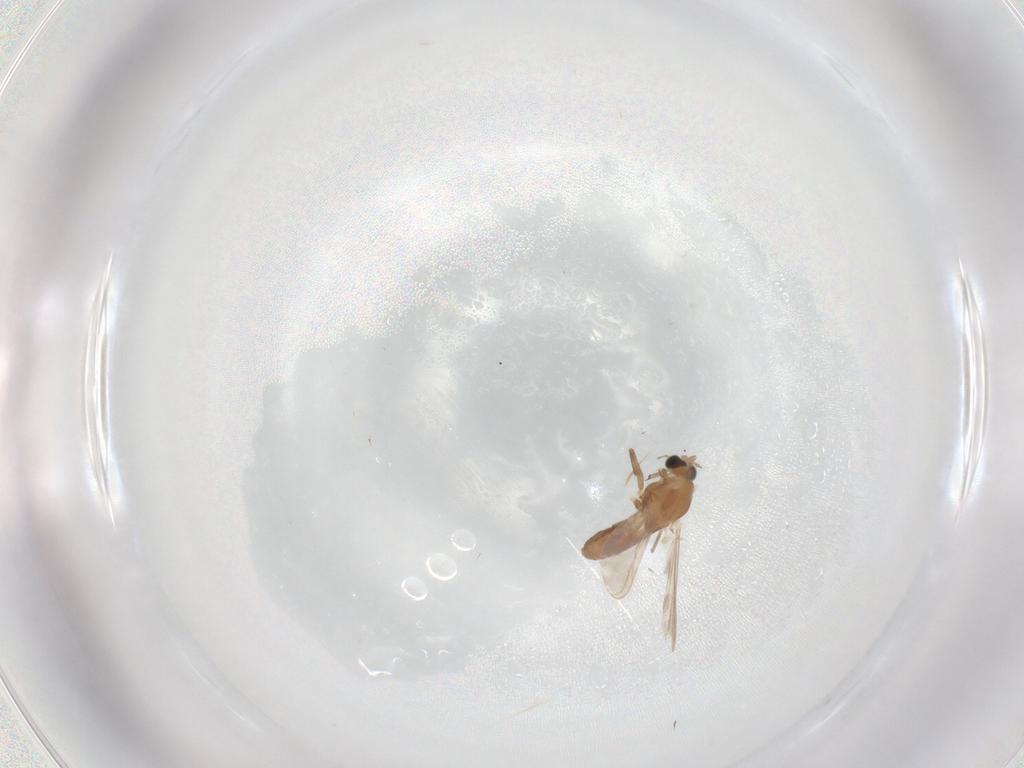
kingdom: Animalia
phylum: Arthropoda
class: Insecta
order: Diptera
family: Chironomidae
